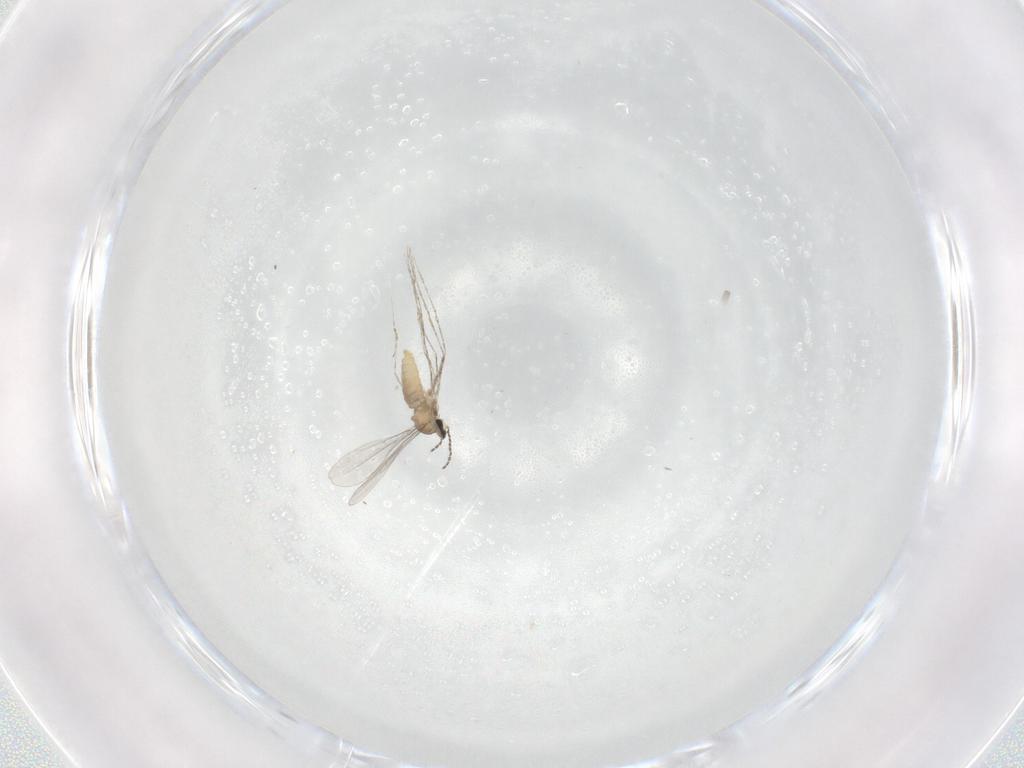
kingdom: Animalia
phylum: Arthropoda
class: Insecta
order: Diptera
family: Cecidomyiidae
